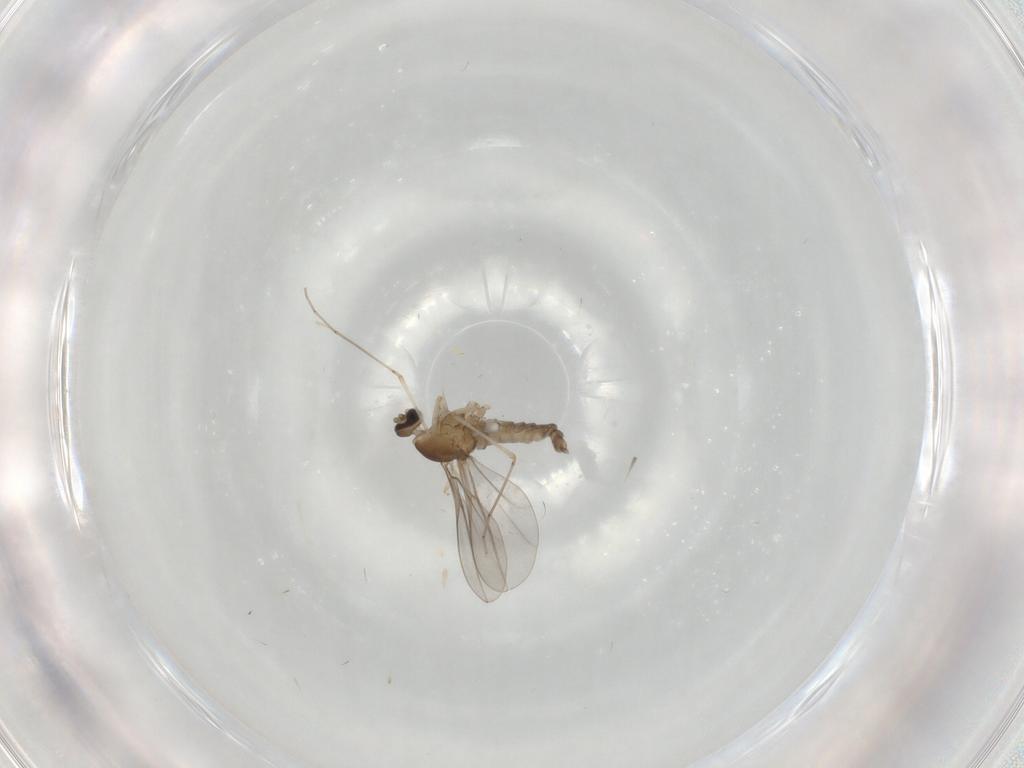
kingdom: Animalia
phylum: Arthropoda
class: Insecta
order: Diptera
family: Cecidomyiidae
